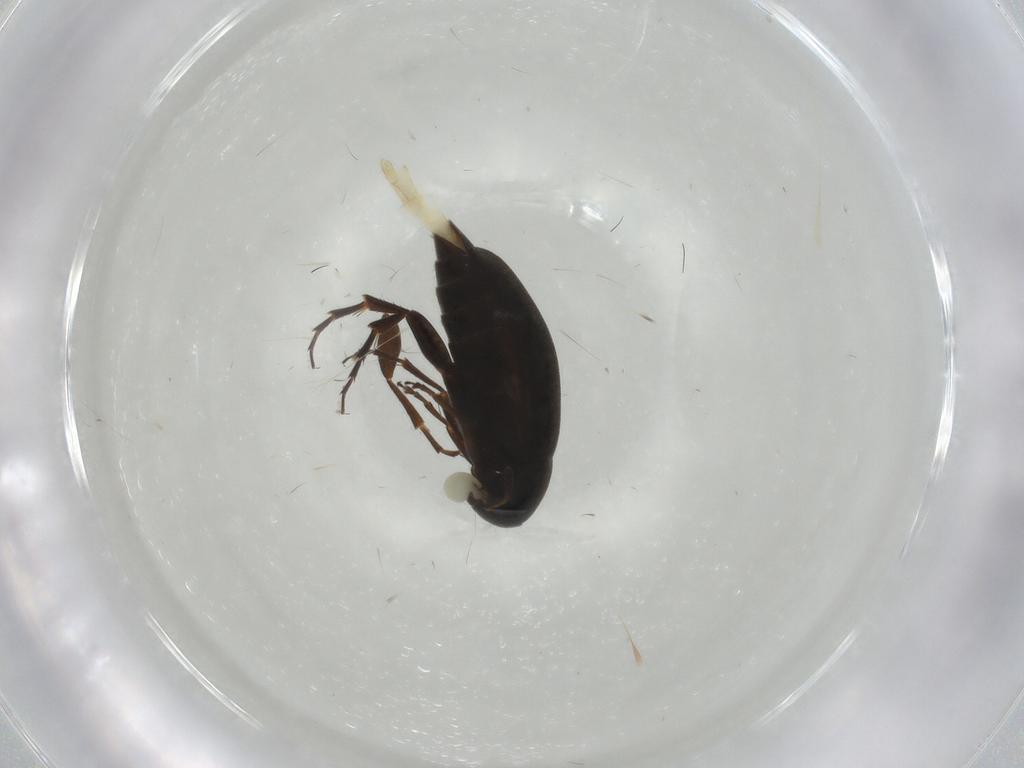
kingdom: Animalia
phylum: Arthropoda
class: Insecta
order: Coleoptera
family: Scraptiidae
